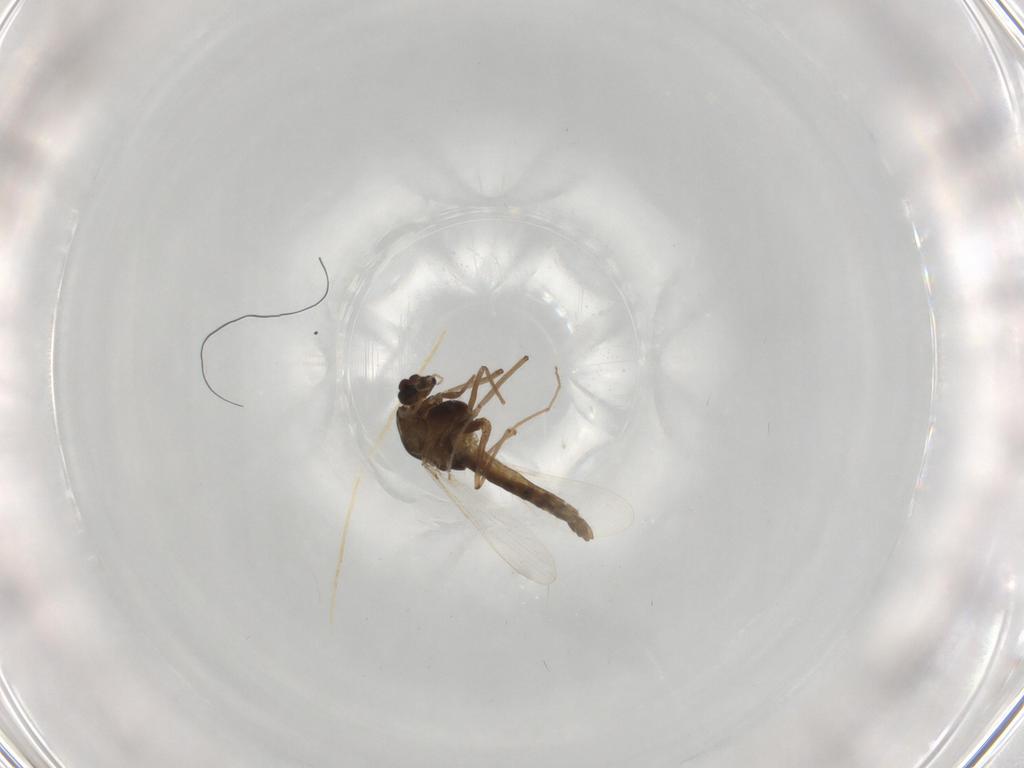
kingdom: Animalia
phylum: Arthropoda
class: Insecta
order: Diptera
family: Chironomidae
